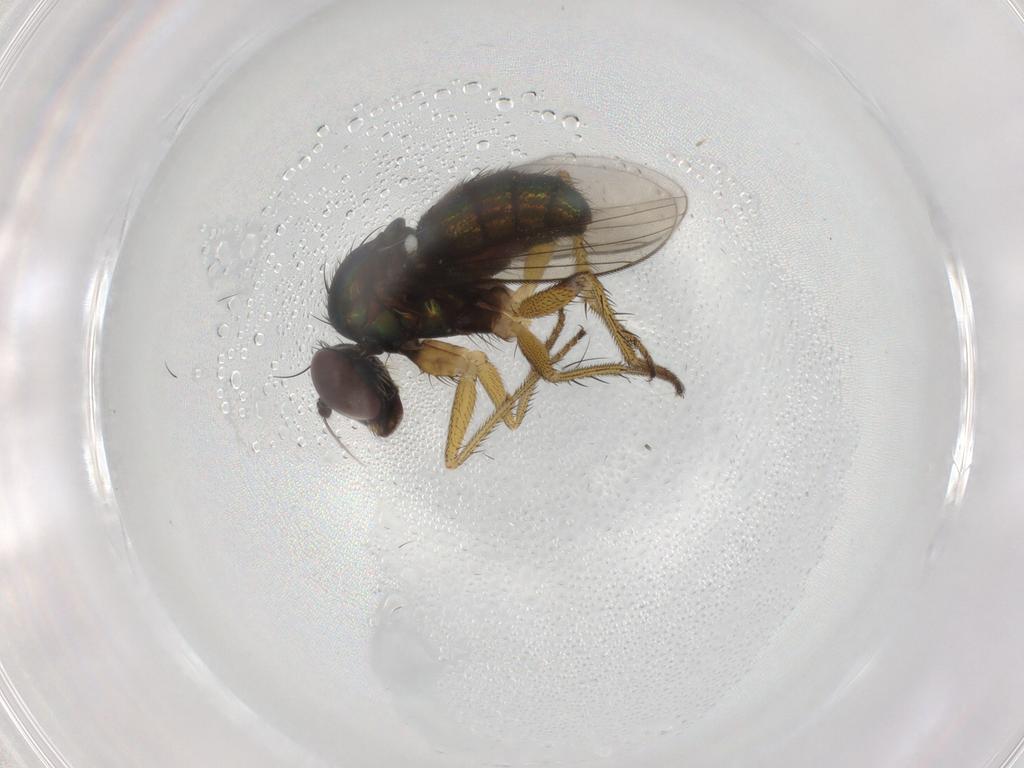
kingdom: Animalia
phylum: Arthropoda
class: Insecta
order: Diptera
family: Dolichopodidae
